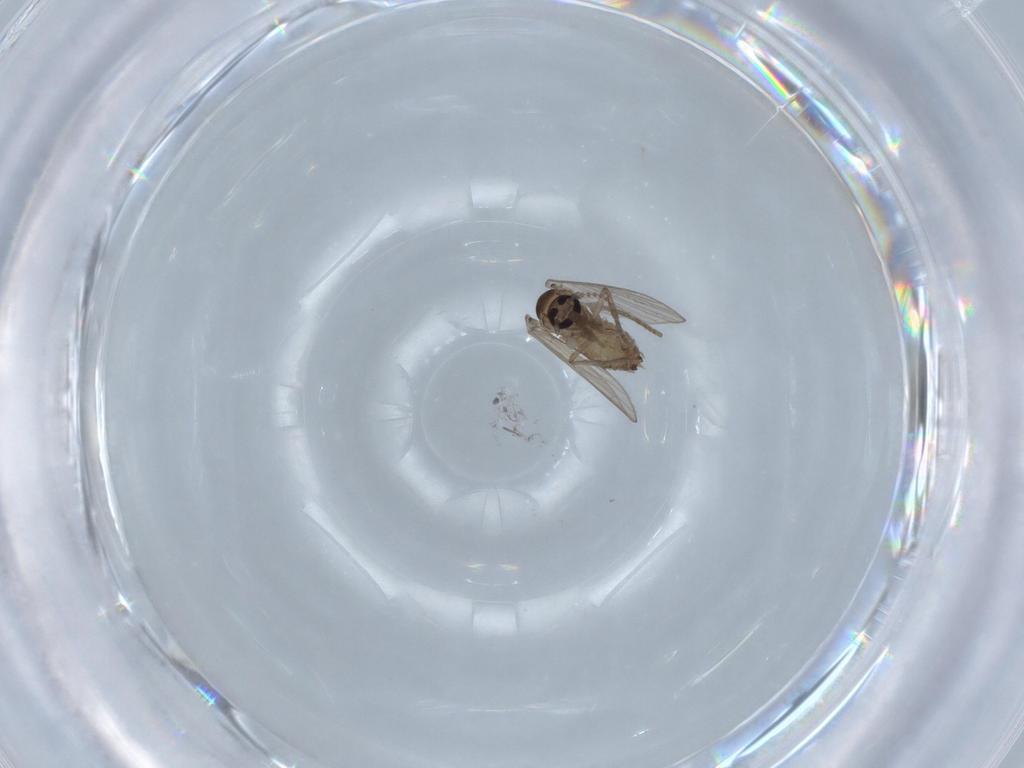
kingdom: Animalia
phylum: Arthropoda
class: Insecta
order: Diptera
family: Psychodidae
